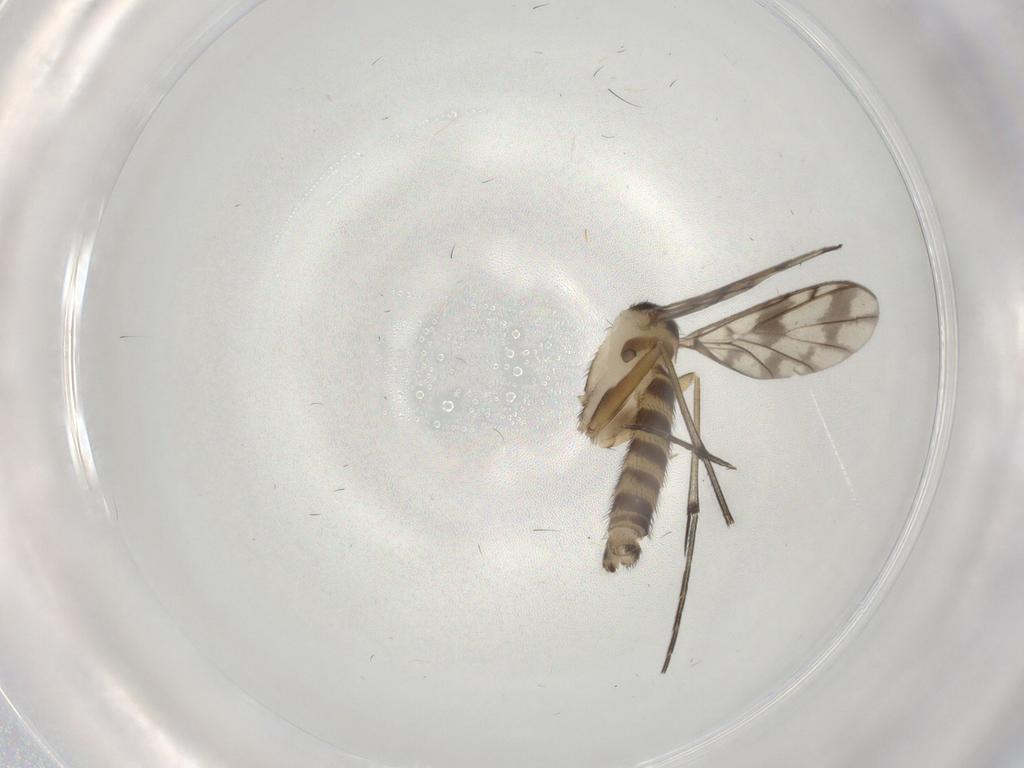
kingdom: Animalia
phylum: Arthropoda
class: Insecta
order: Diptera
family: Keroplatidae
